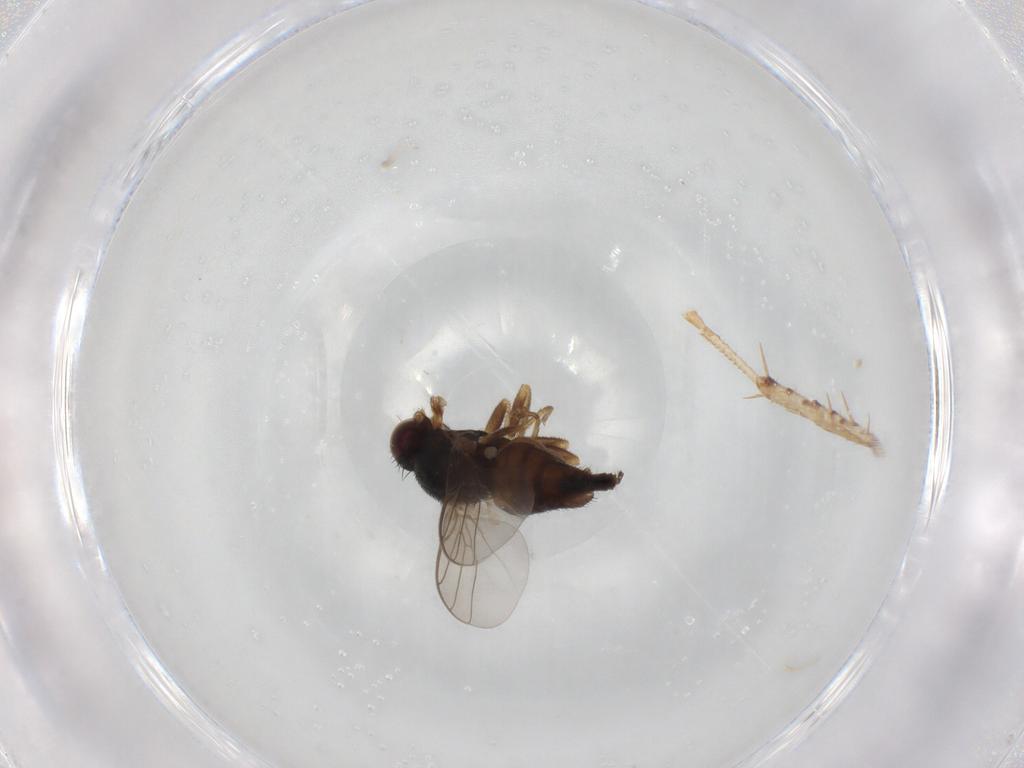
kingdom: Animalia
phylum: Arthropoda
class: Insecta
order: Diptera
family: Chloropidae
